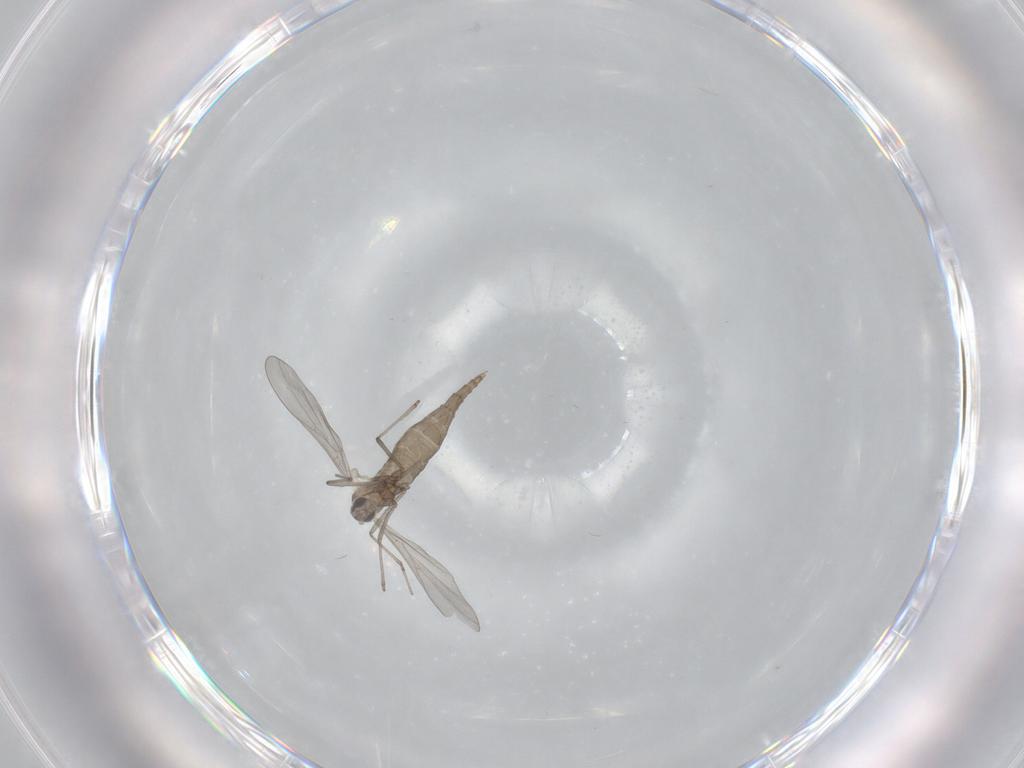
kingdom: Animalia
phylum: Arthropoda
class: Insecta
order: Diptera
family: Cecidomyiidae
